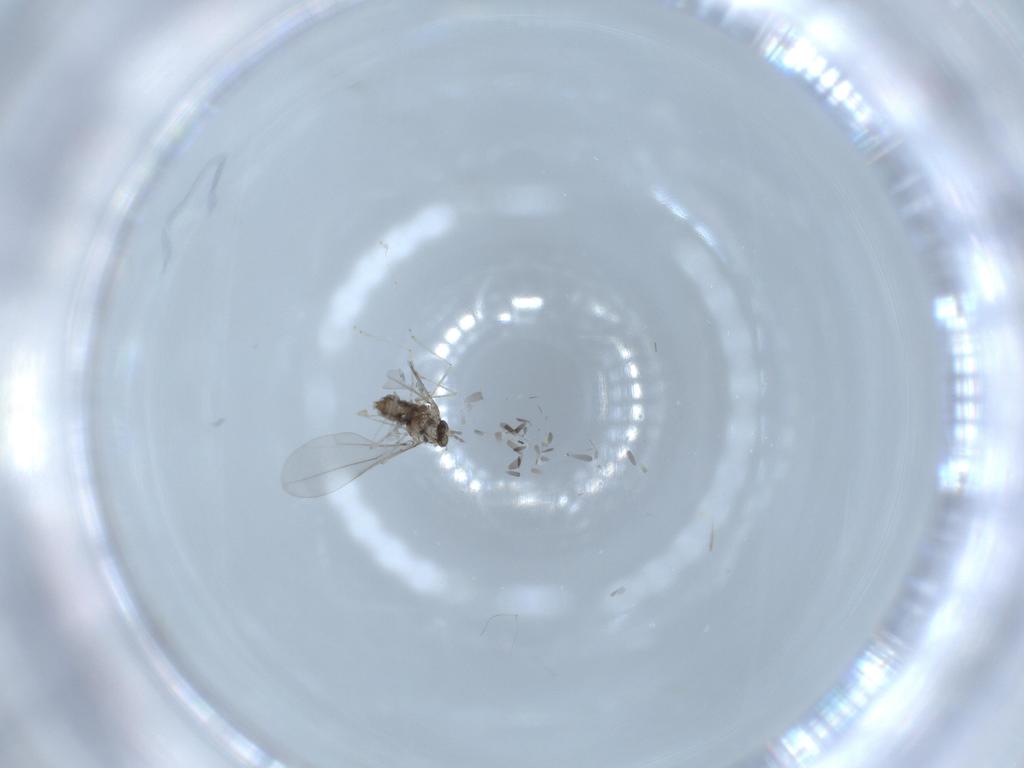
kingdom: Animalia
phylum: Arthropoda
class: Insecta
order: Diptera
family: Cecidomyiidae
